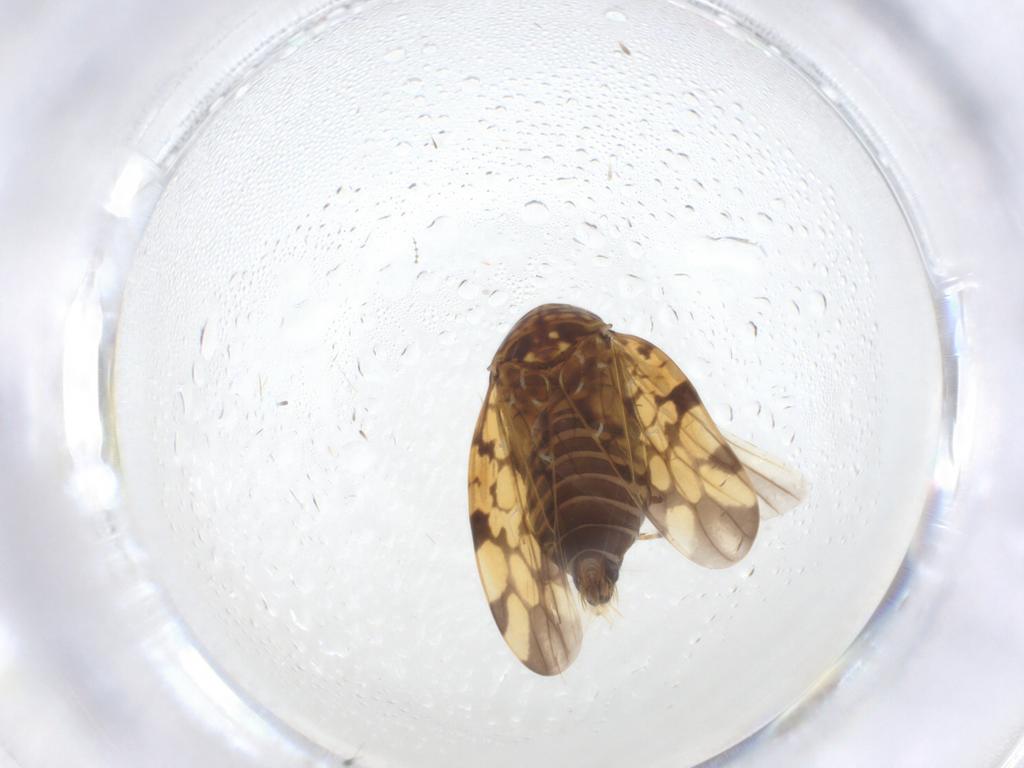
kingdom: Animalia
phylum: Arthropoda
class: Insecta
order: Hemiptera
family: Cicadellidae
